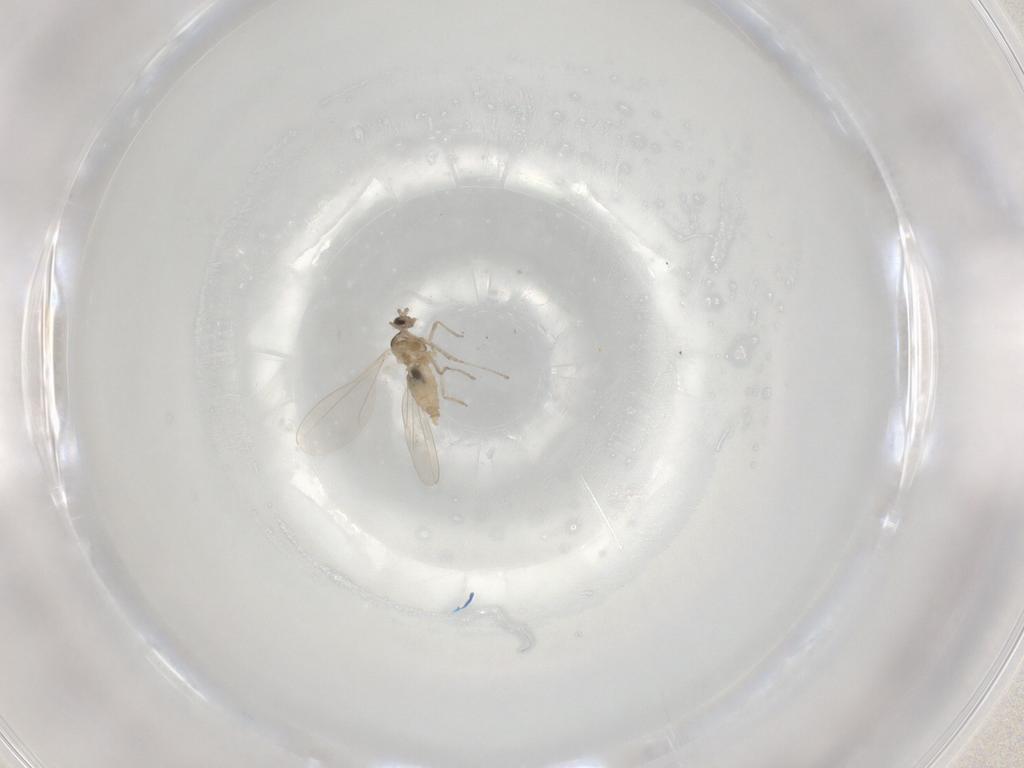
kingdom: Animalia
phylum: Arthropoda
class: Insecta
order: Diptera
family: Sciaridae
